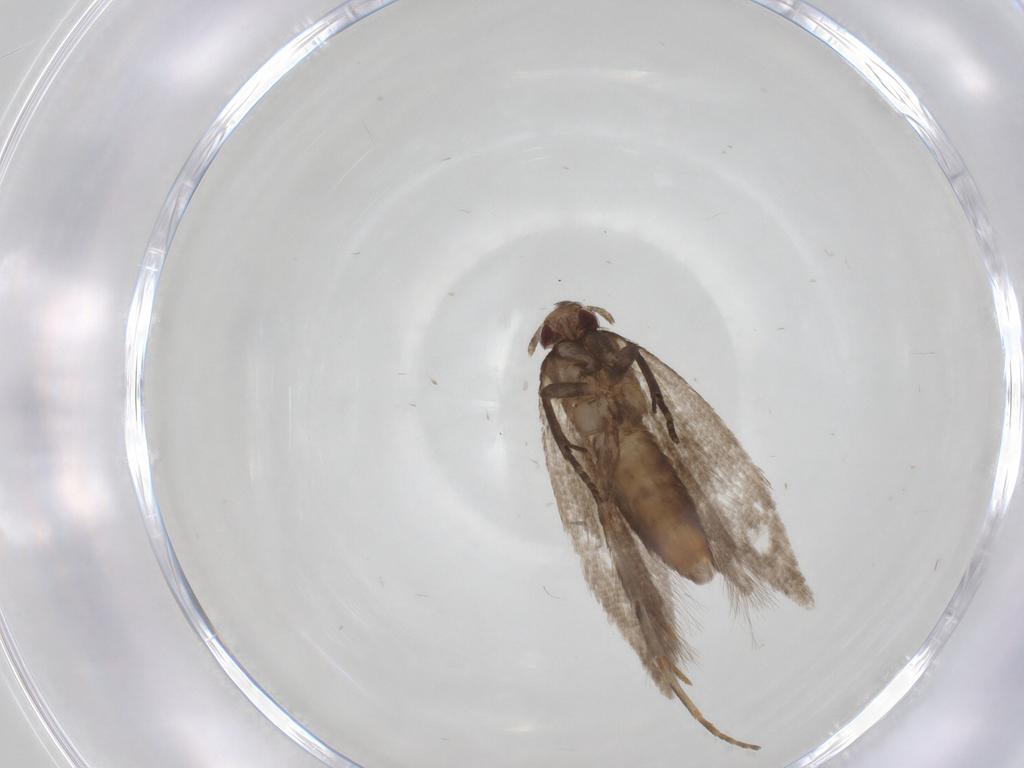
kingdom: Animalia
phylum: Arthropoda
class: Insecta
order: Lepidoptera
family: Gelechiidae
